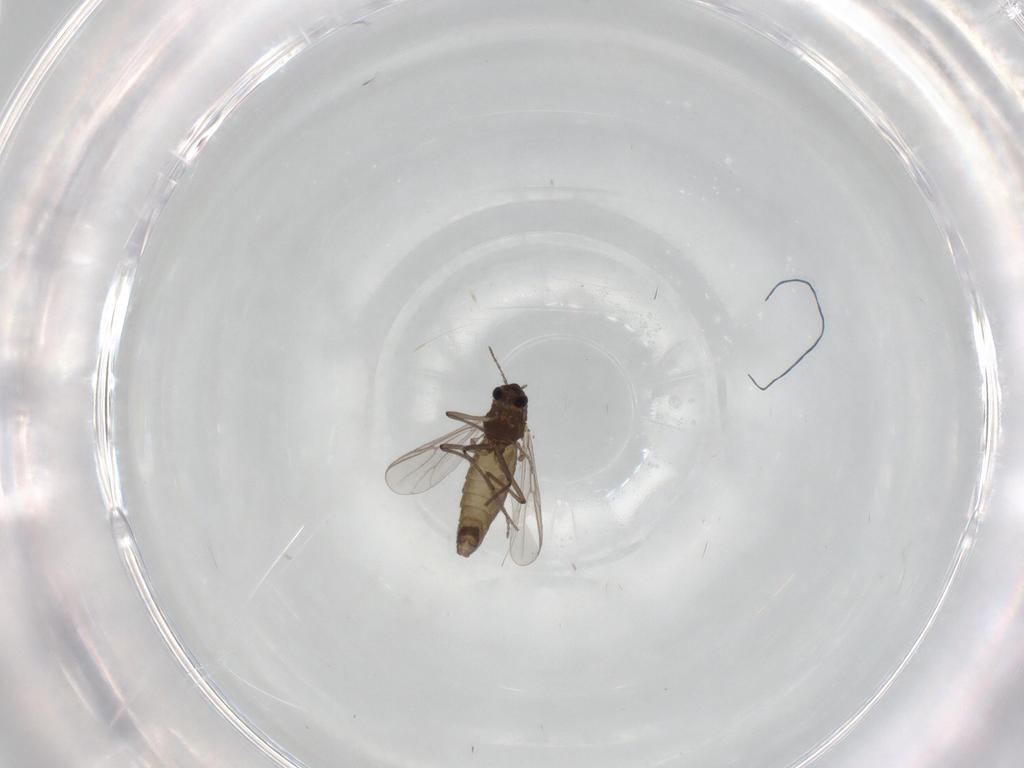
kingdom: Animalia
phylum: Arthropoda
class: Insecta
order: Diptera
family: Chironomidae
